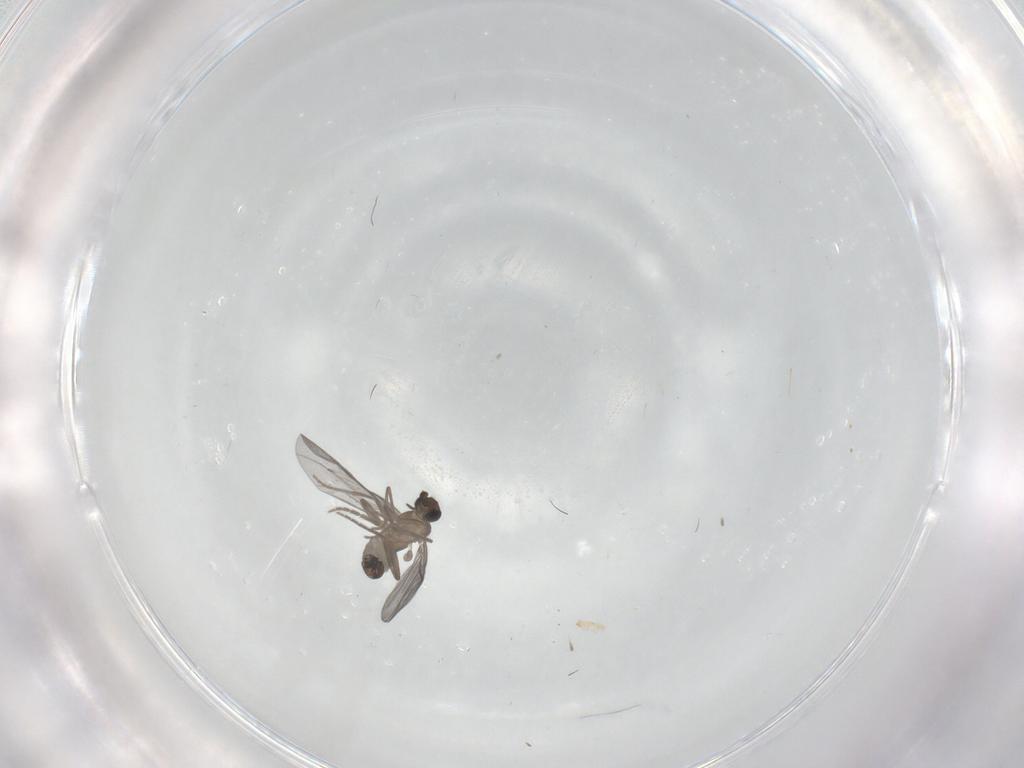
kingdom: Animalia
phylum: Arthropoda
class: Insecta
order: Diptera
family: Phoridae
